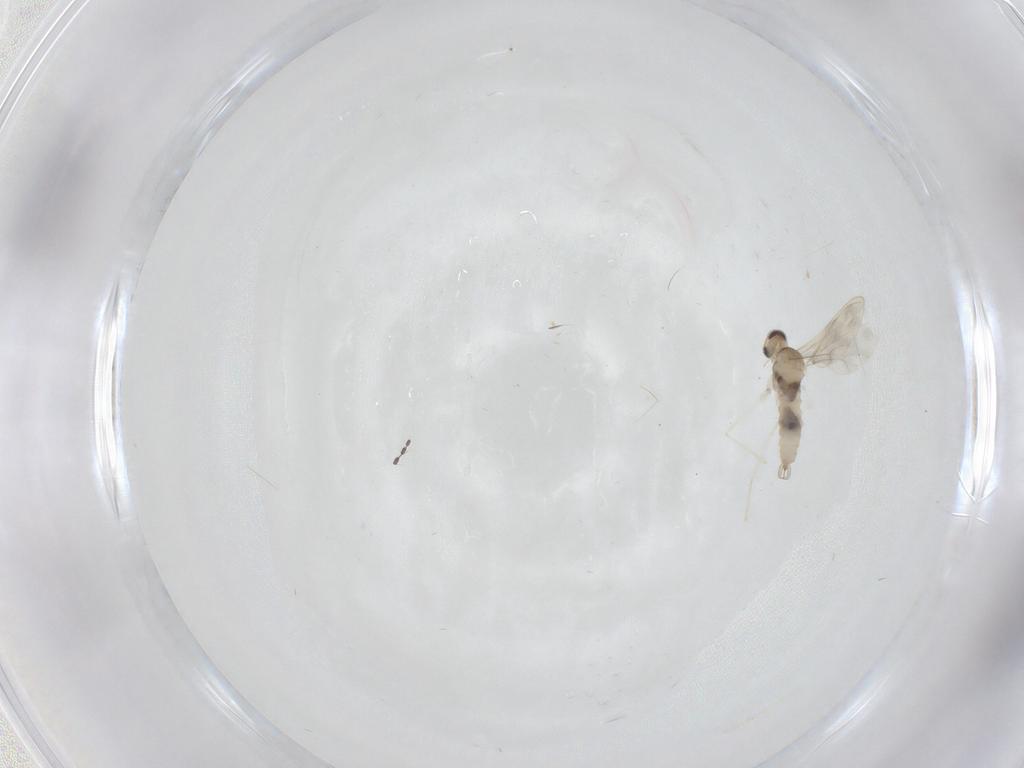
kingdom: Animalia
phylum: Arthropoda
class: Insecta
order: Diptera
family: Cecidomyiidae
